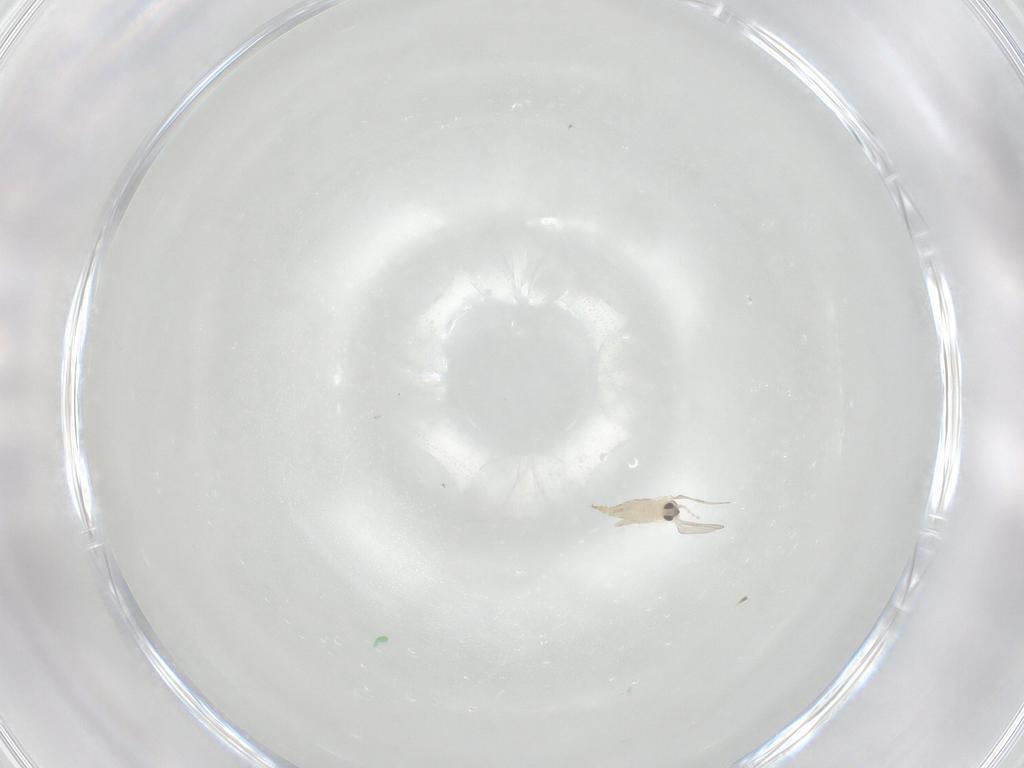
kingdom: Animalia
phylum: Arthropoda
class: Insecta
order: Diptera
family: Cecidomyiidae
